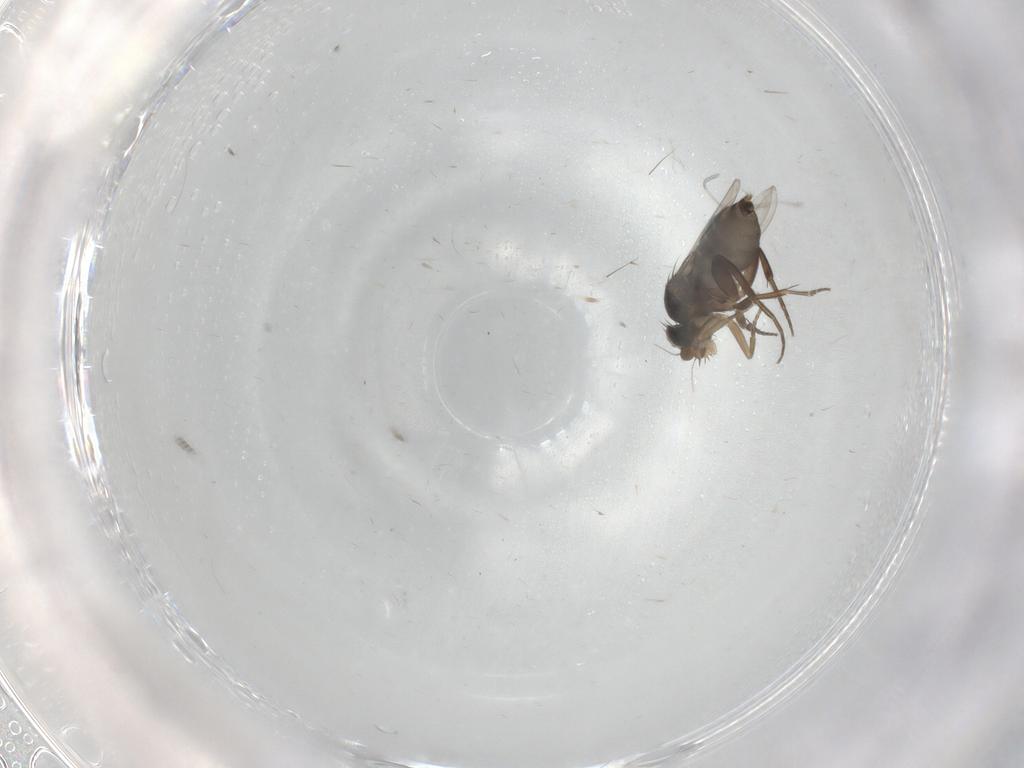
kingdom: Animalia
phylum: Arthropoda
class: Insecta
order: Diptera
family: Phoridae
